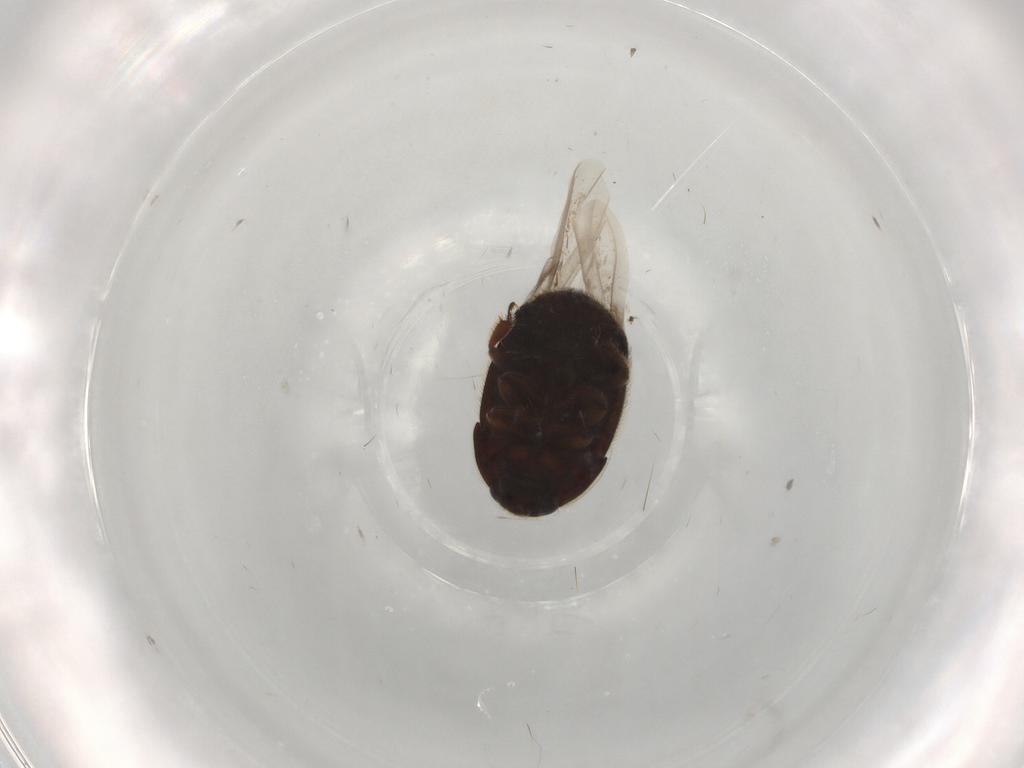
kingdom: Animalia
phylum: Arthropoda
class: Insecta
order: Coleoptera
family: Nitidulidae
